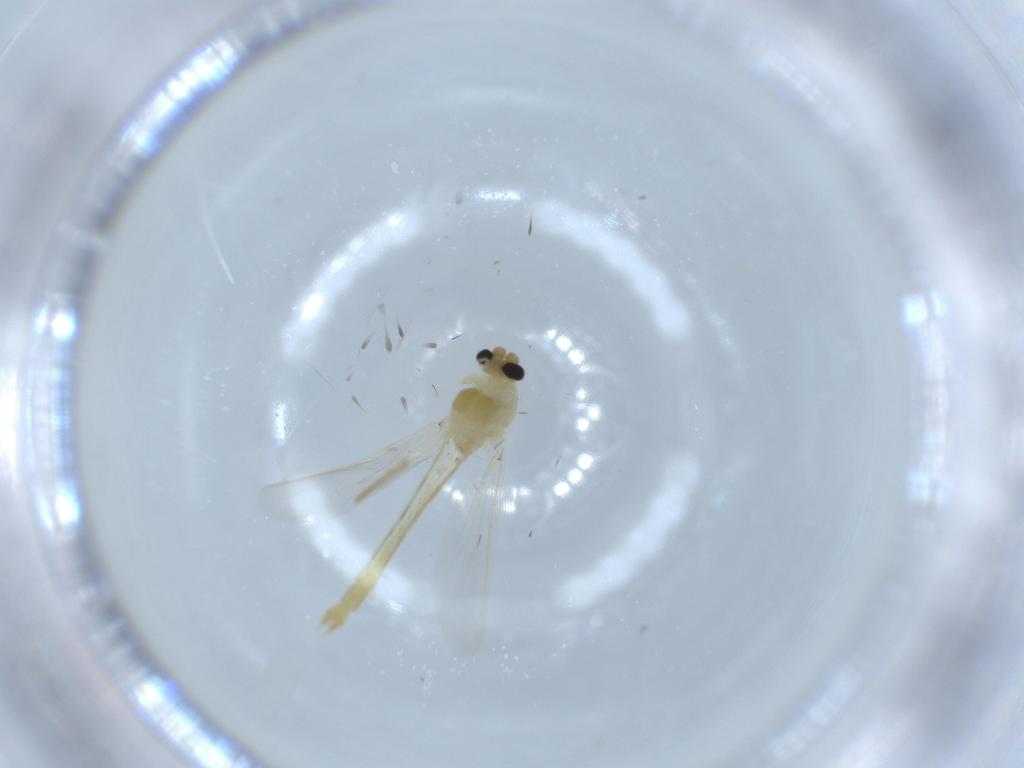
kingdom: Animalia
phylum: Arthropoda
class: Insecta
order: Diptera
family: Chironomidae
